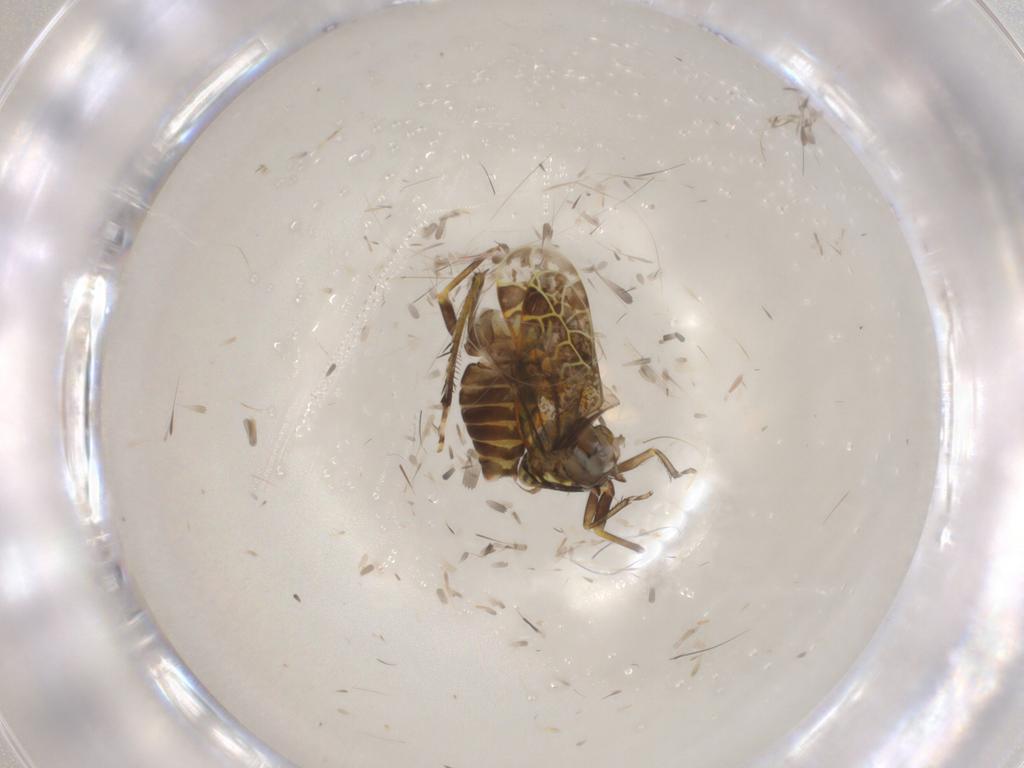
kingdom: Animalia
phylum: Arthropoda
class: Insecta
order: Hemiptera
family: Cicadellidae
